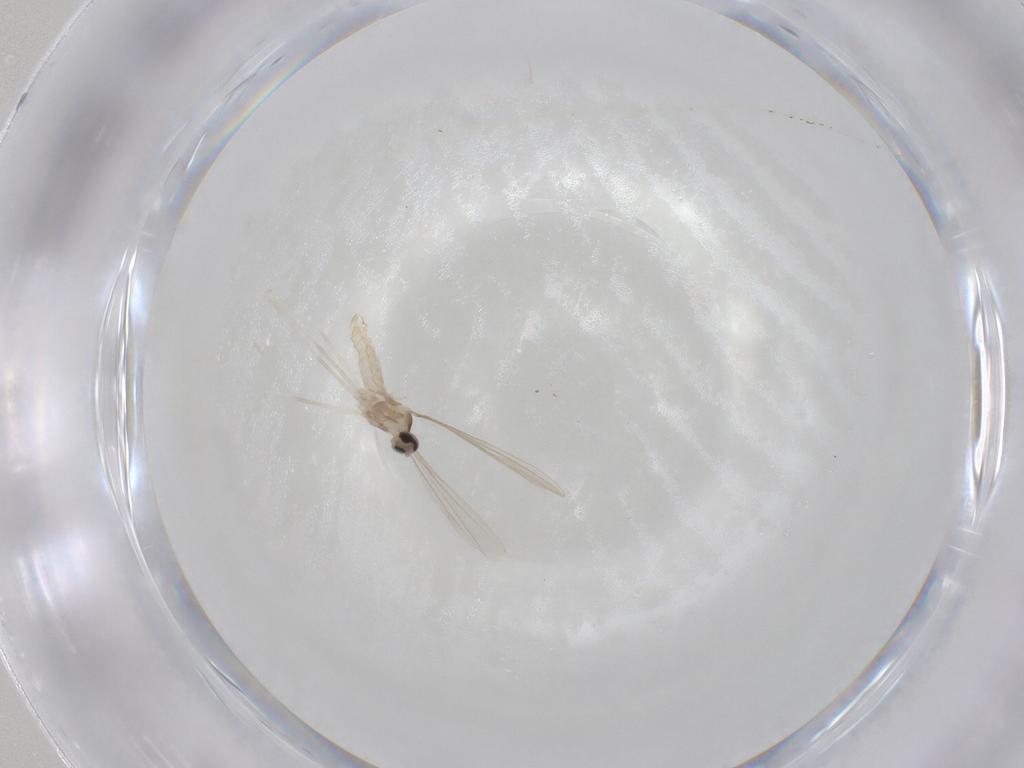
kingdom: Animalia
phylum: Arthropoda
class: Insecta
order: Diptera
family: Cecidomyiidae
